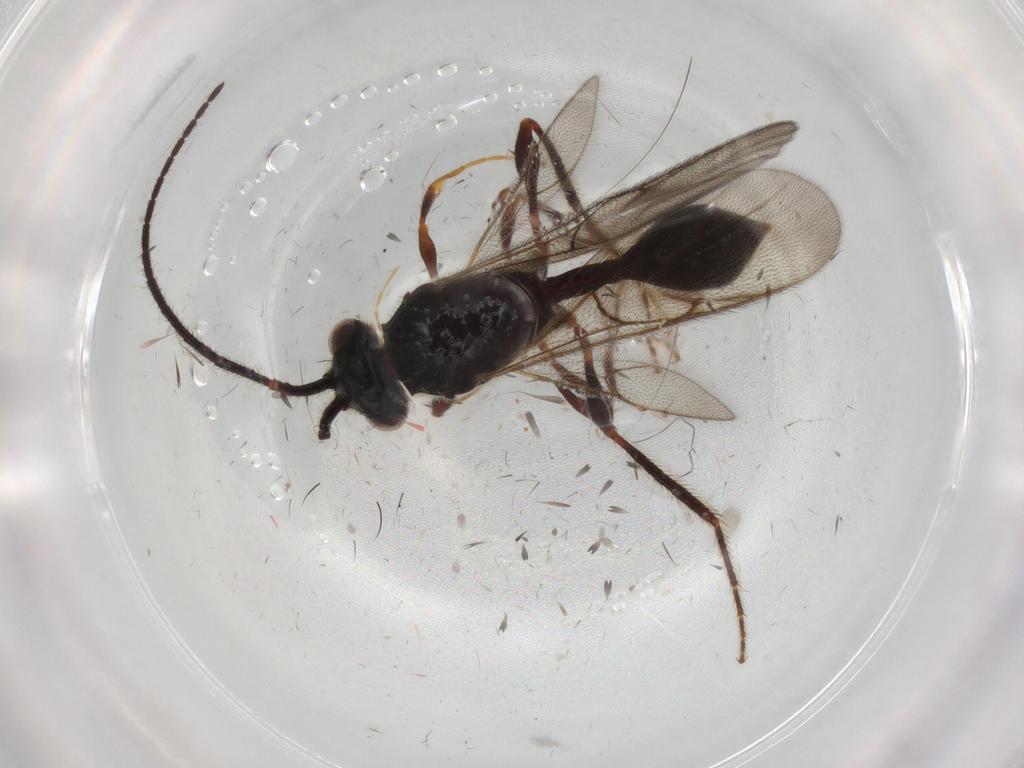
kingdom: Animalia
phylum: Arthropoda
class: Insecta
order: Hymenoptera
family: Diapriidae
